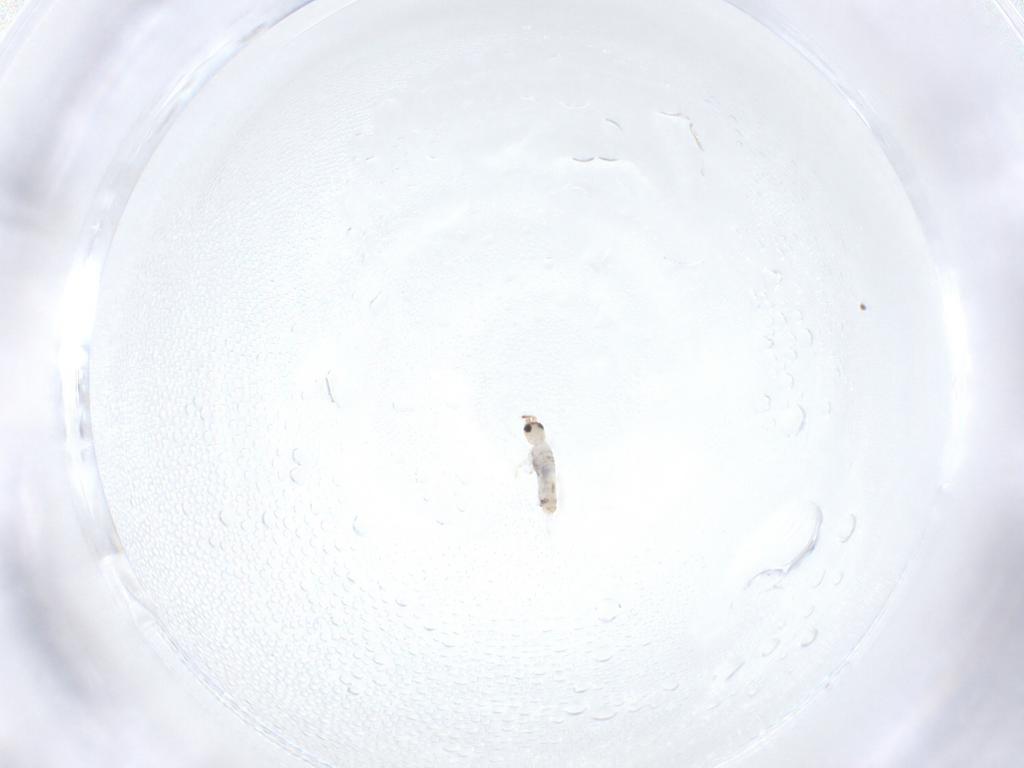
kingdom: Animalia
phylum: Arthropoda
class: Collembola
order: Entomobryomorpha
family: Entomobryidae
